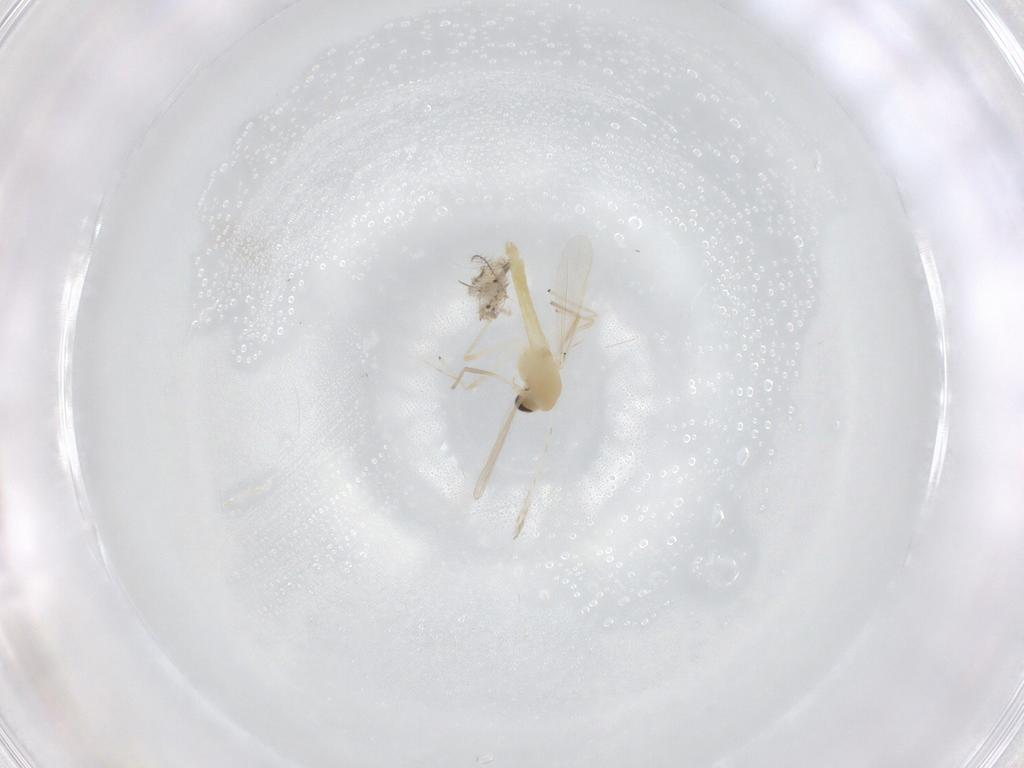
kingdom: Animalia
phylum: Arthropoda
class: Insecta
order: Diptera
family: Chironomidae
